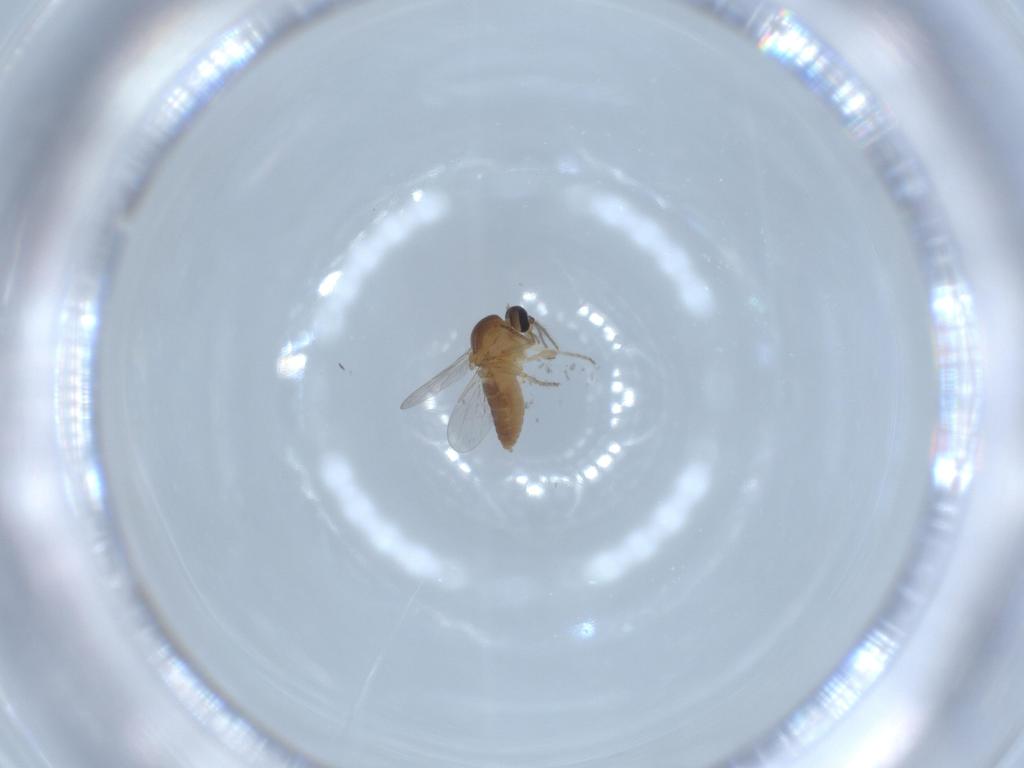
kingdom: Animalia
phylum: Arthropoda
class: Insecta
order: Diptera
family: Ceratopogonidae
